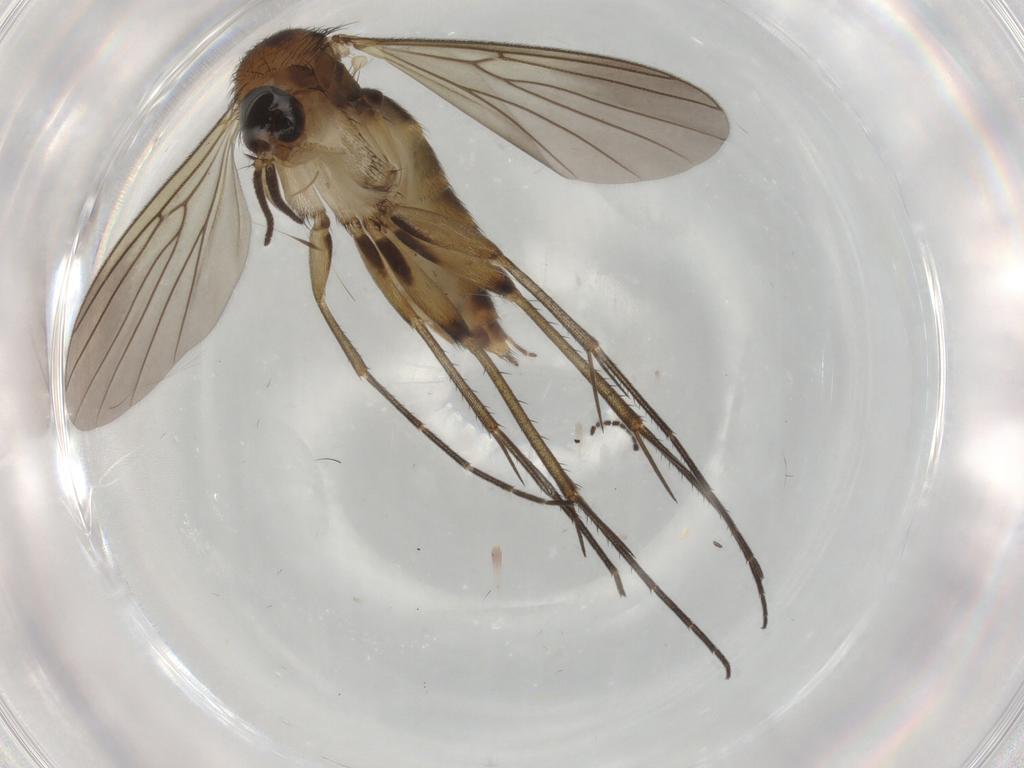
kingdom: Animalia
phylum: Arthropoda
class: Insecta
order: Diptera
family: Mycetophilidae
